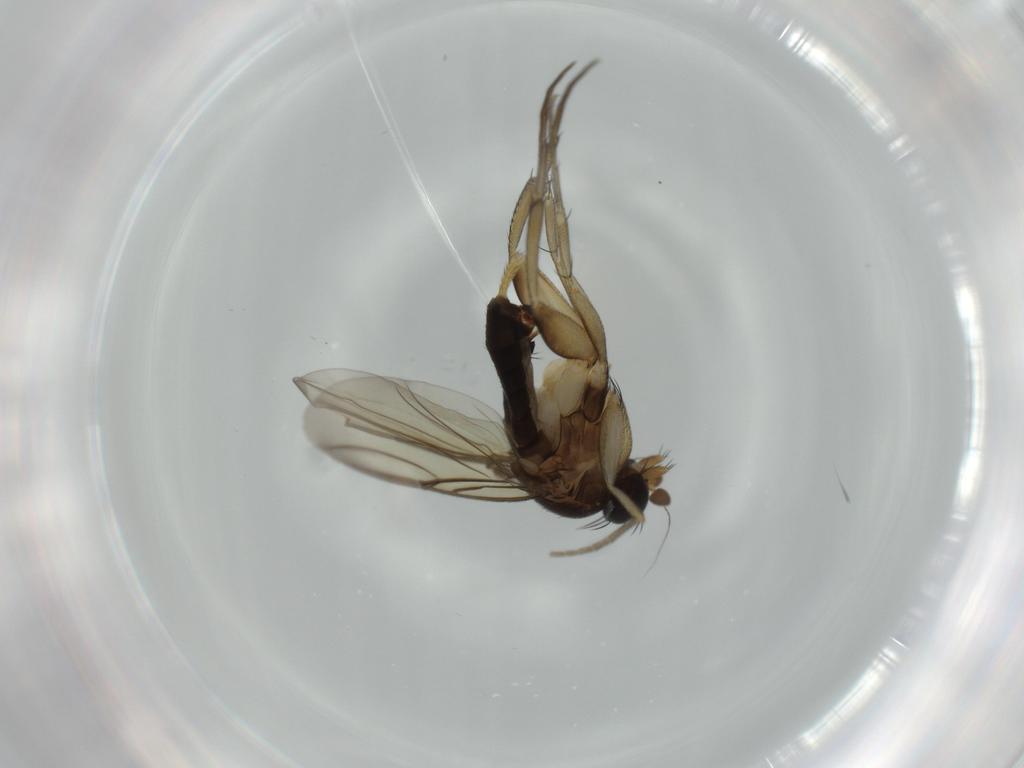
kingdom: Animalia
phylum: Arthropoda
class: Insecta
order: Diptera
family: Phoridae
